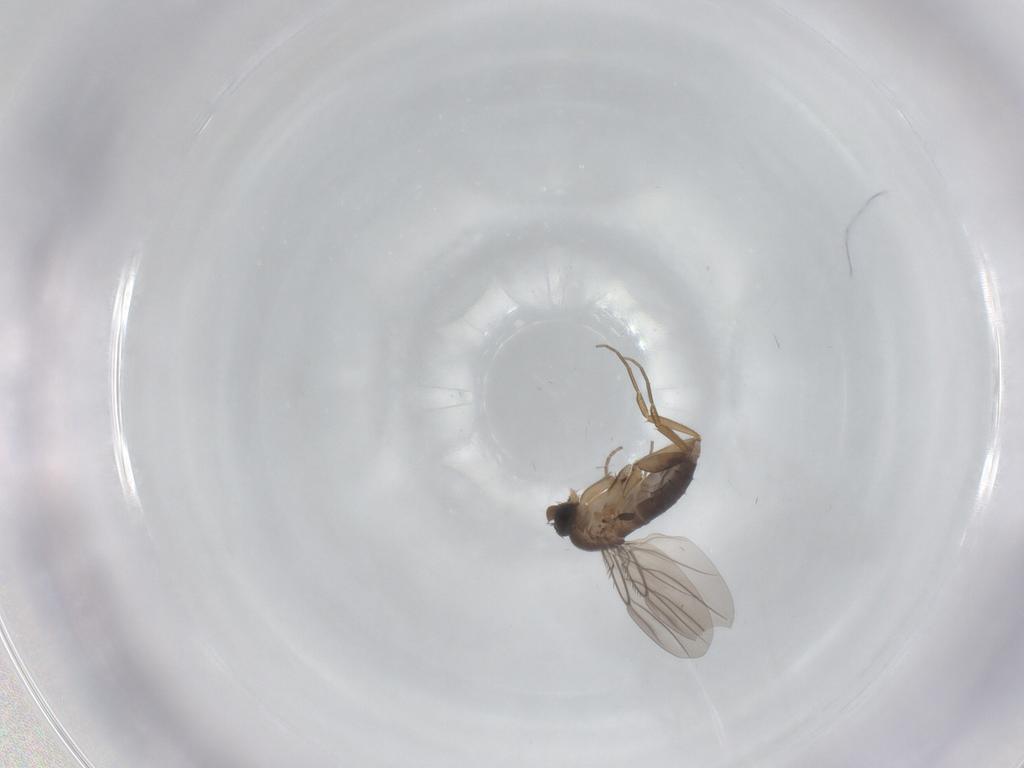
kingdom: Animalia
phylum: Arthropoda
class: Insecta
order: Diptera
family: Phoridae
